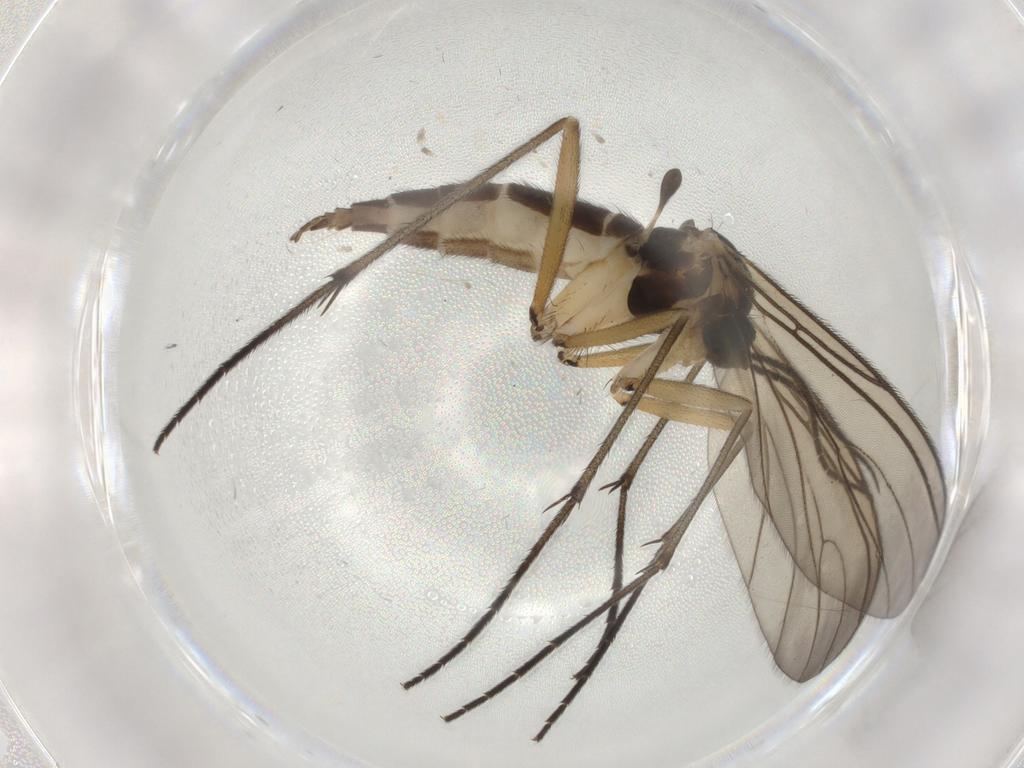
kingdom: Animalia
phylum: Arthropoda
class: Insecta
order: Diptera
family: Sciaridae
